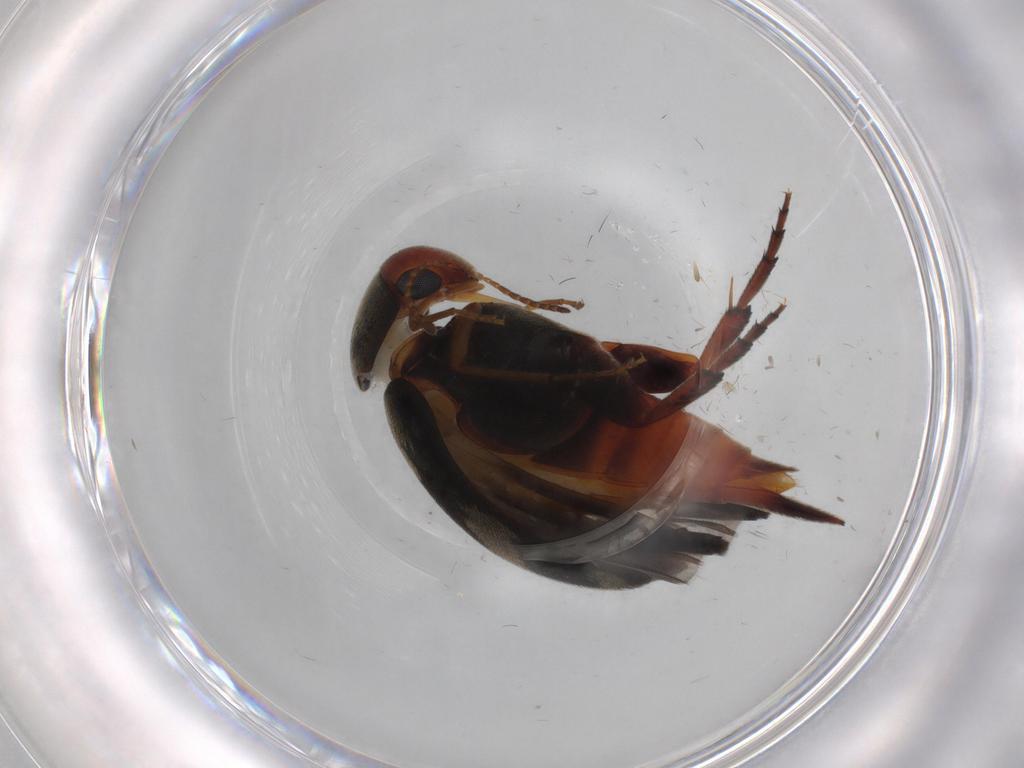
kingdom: Animalia
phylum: Arthropoda
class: Insecta
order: Coleoptera
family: Mordellidae
